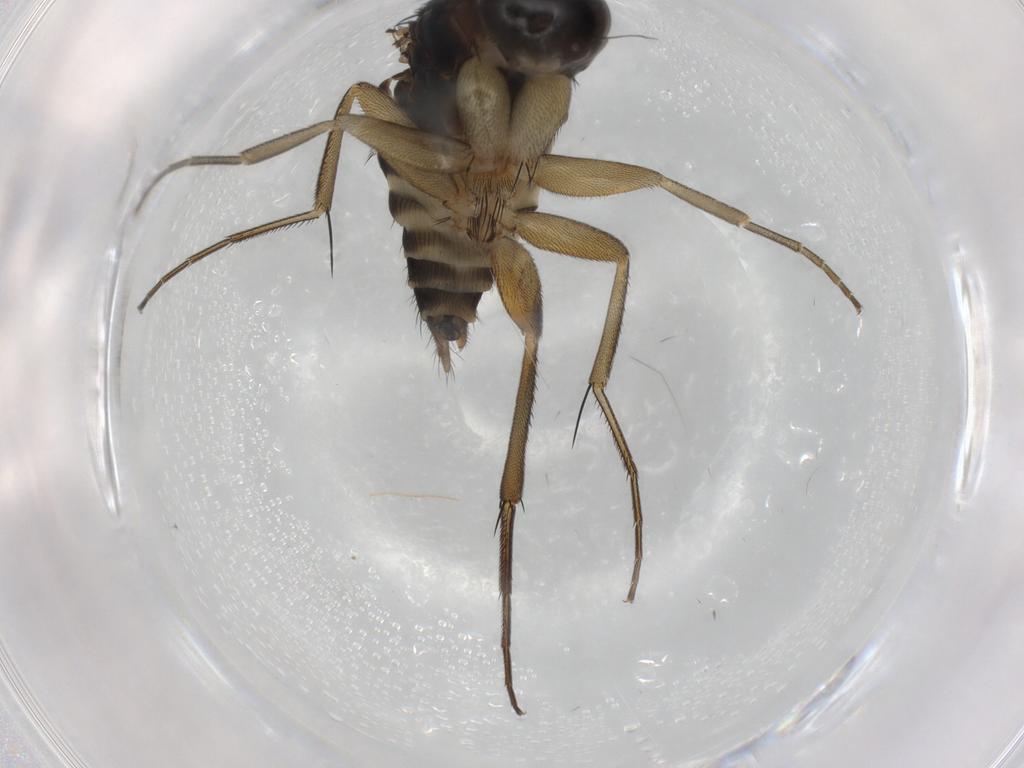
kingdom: Animalia
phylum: Arthropoda
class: Insecta
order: Diptera
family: Phoridae
